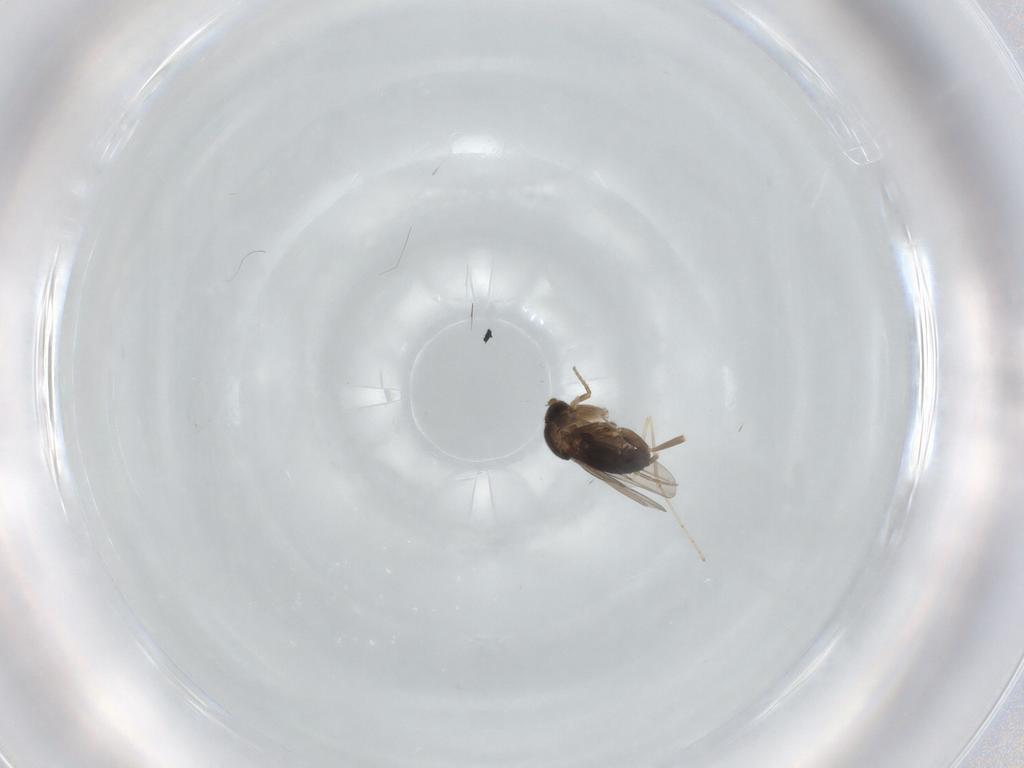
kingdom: Animalia
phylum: Arthropoda
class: Insecta
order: Diptera
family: Phoridae
